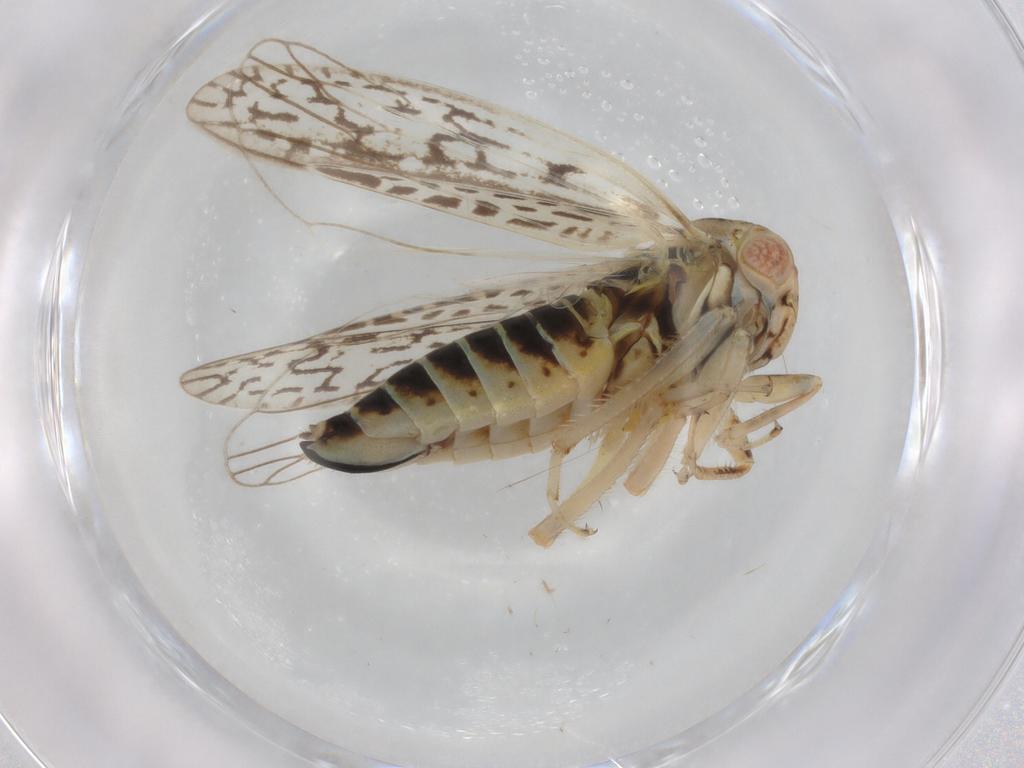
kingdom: Animalia
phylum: Arthropoda
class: Insecta
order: Hemiptera
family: Cicadellidae
